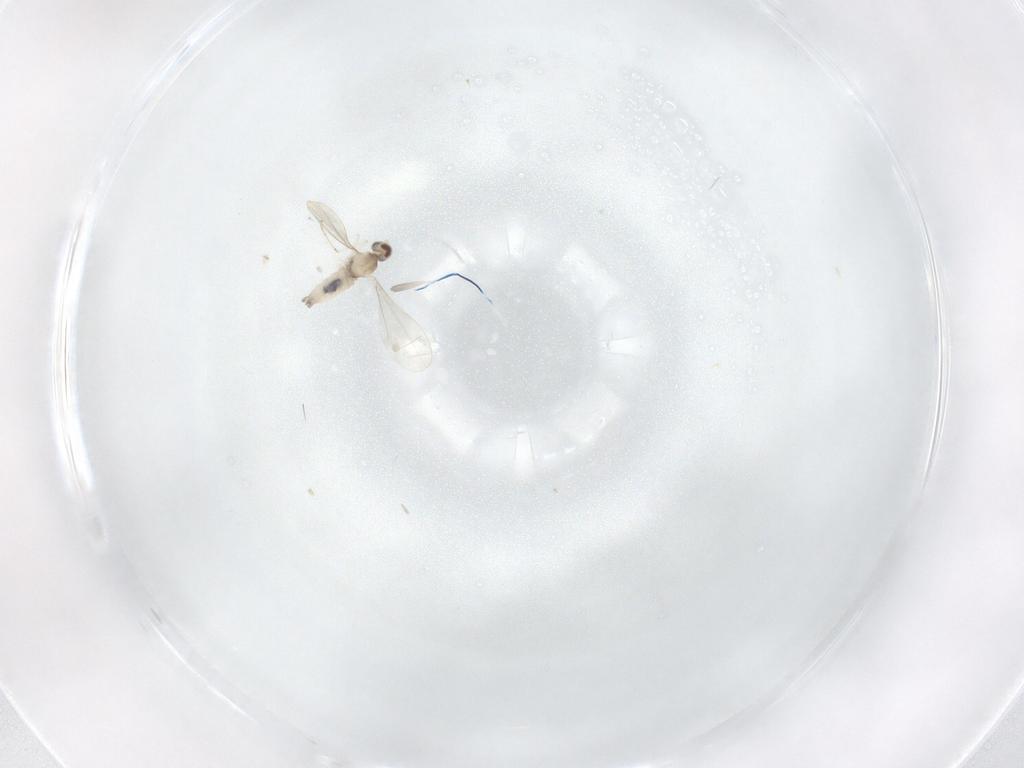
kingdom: Animalia
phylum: Arthropoda
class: Insecta
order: Diptera
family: Cecidomyiidae
